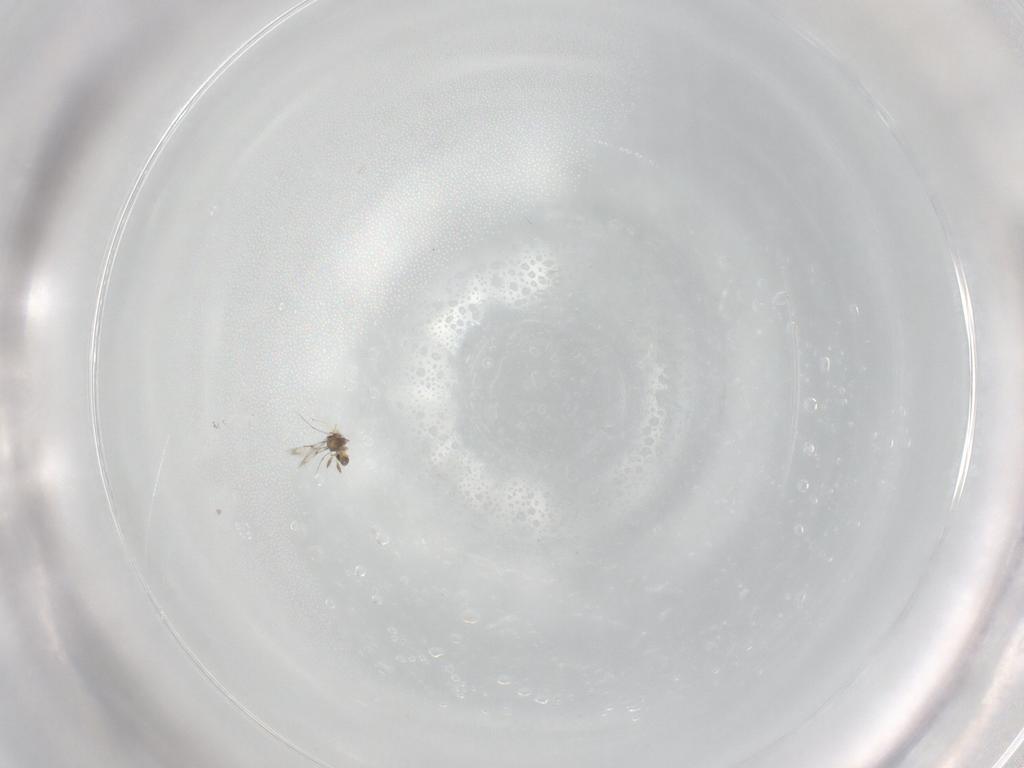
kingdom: Animalia
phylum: Arthropoda
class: Insecta
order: Hymenoptera
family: Trichogrammatidae
